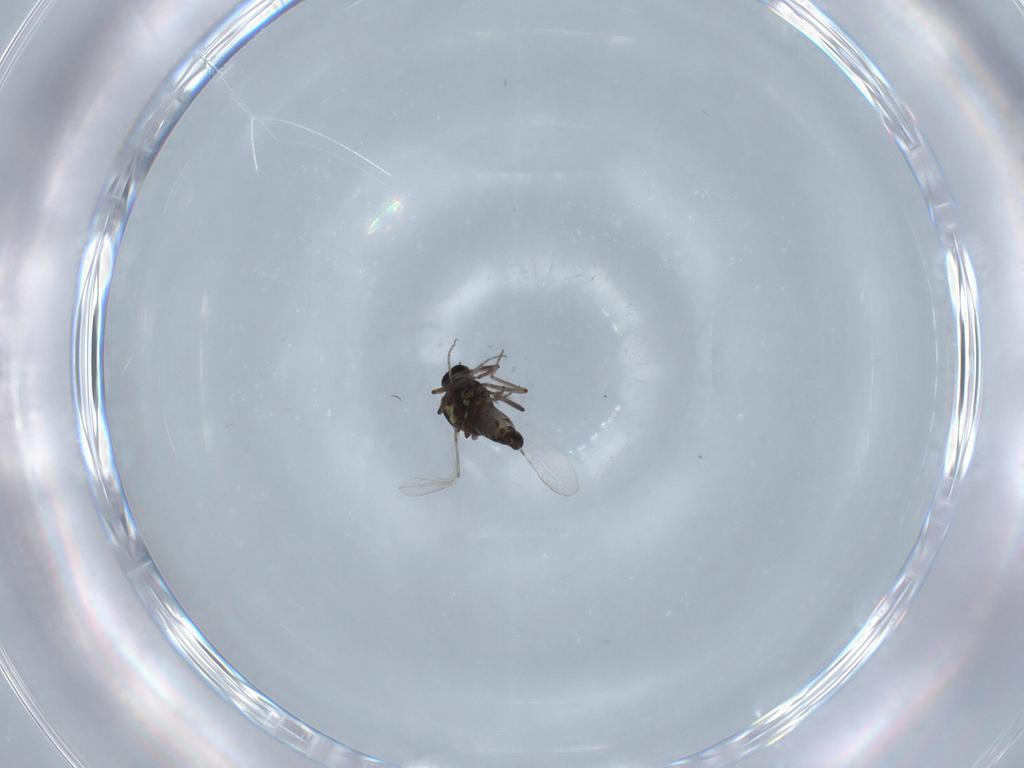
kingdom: Animalia
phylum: Arthropoda
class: Insecta
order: Diptera
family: Ceratopogonidae
